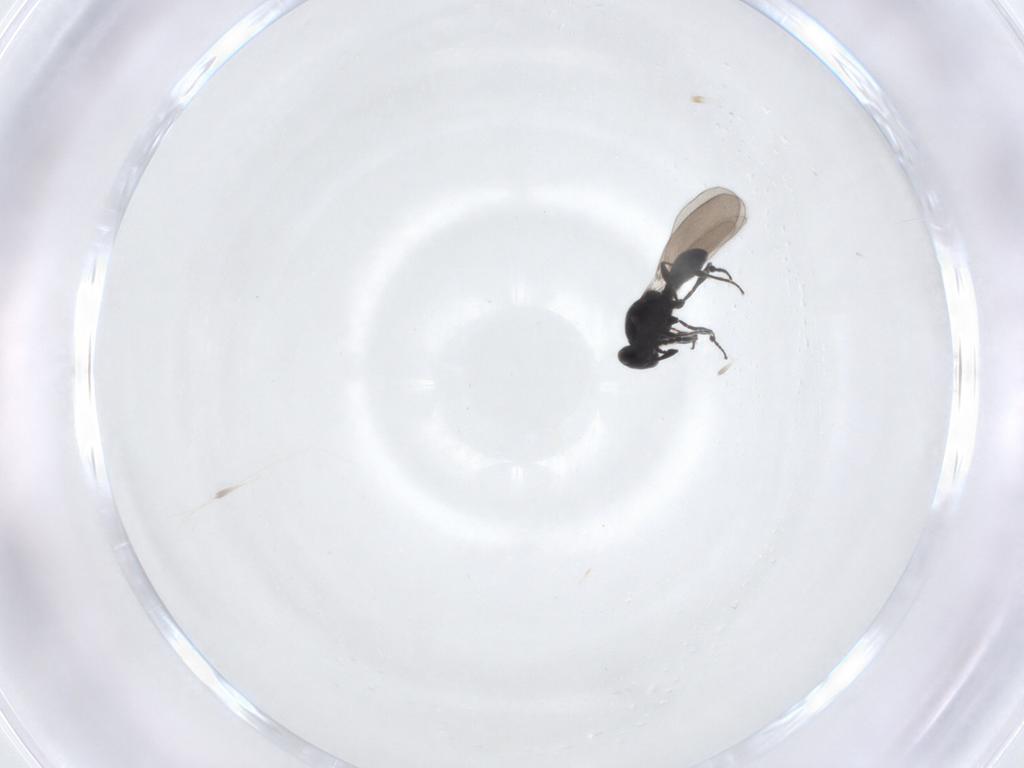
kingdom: Animalia
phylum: Arthropoda
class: Insecta
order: Hymenoptera
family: Platygastridae
